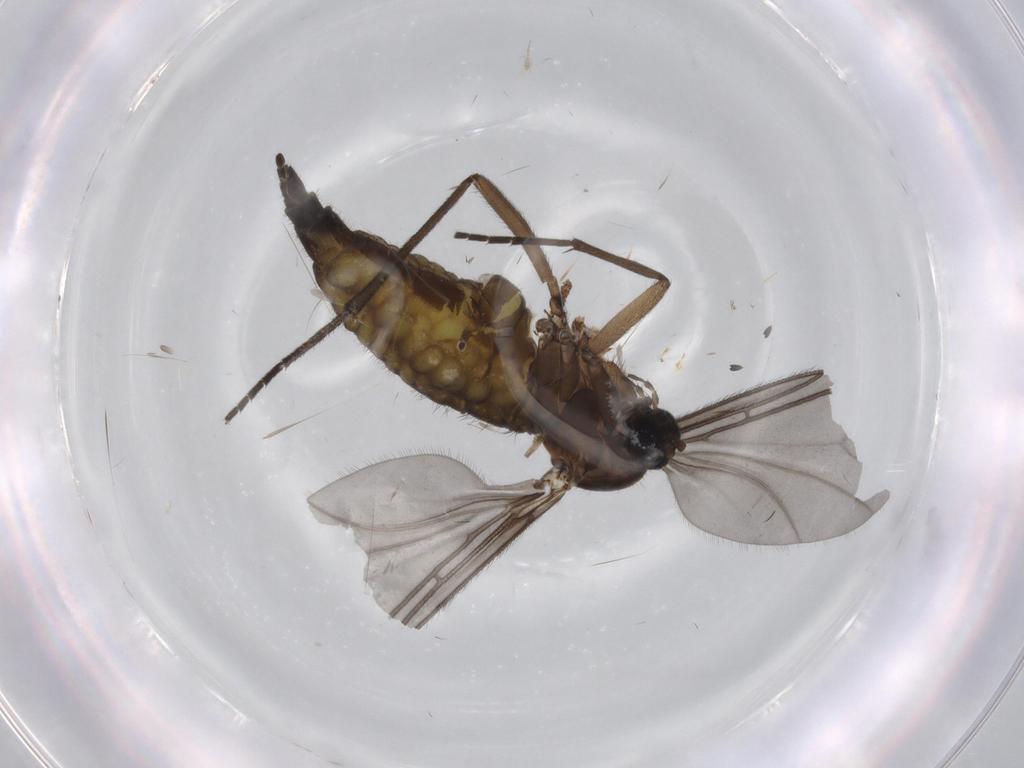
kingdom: Animalia
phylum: Arthropoda
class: Insecta
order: Diptera
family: Sciaridae
